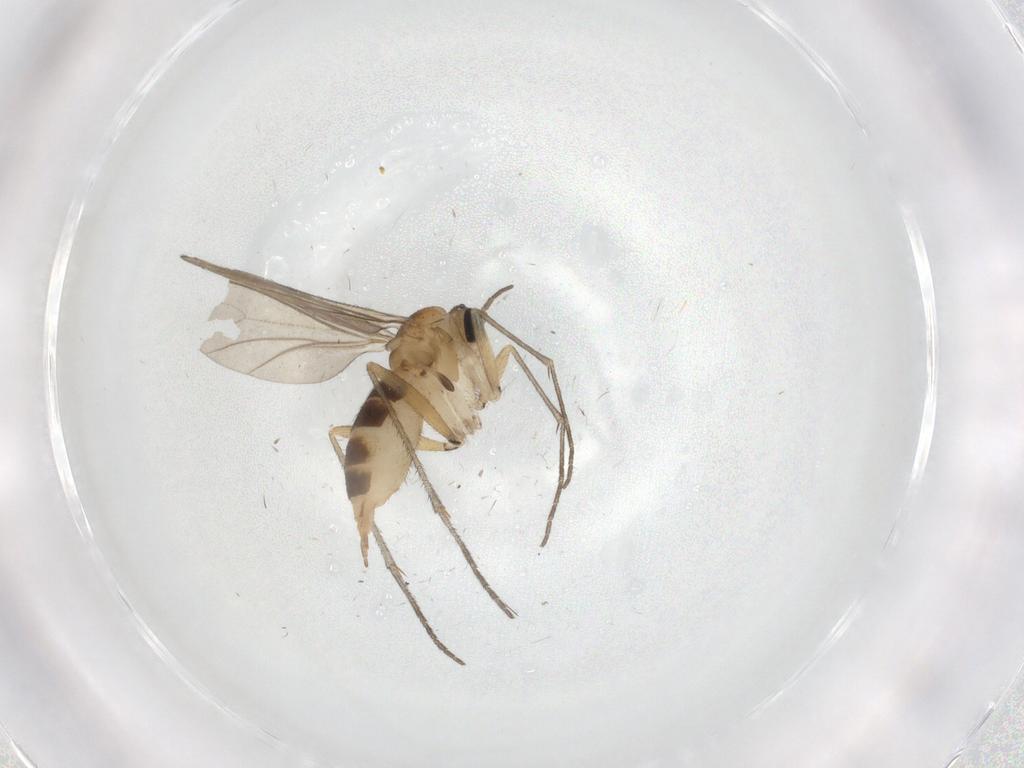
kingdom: Animalia
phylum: Arthropoda
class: Insecta
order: Diptera
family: Sciaridae
